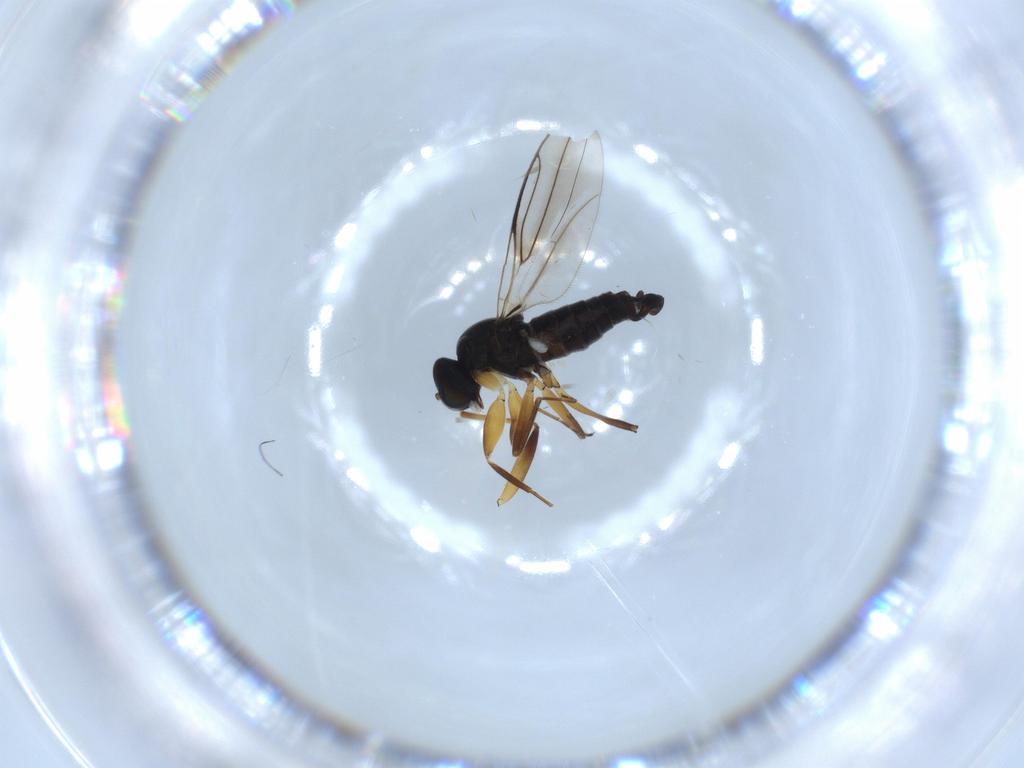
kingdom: Animalia
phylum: Arthropoda
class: Insecta
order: Diptera
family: Hybotidae
